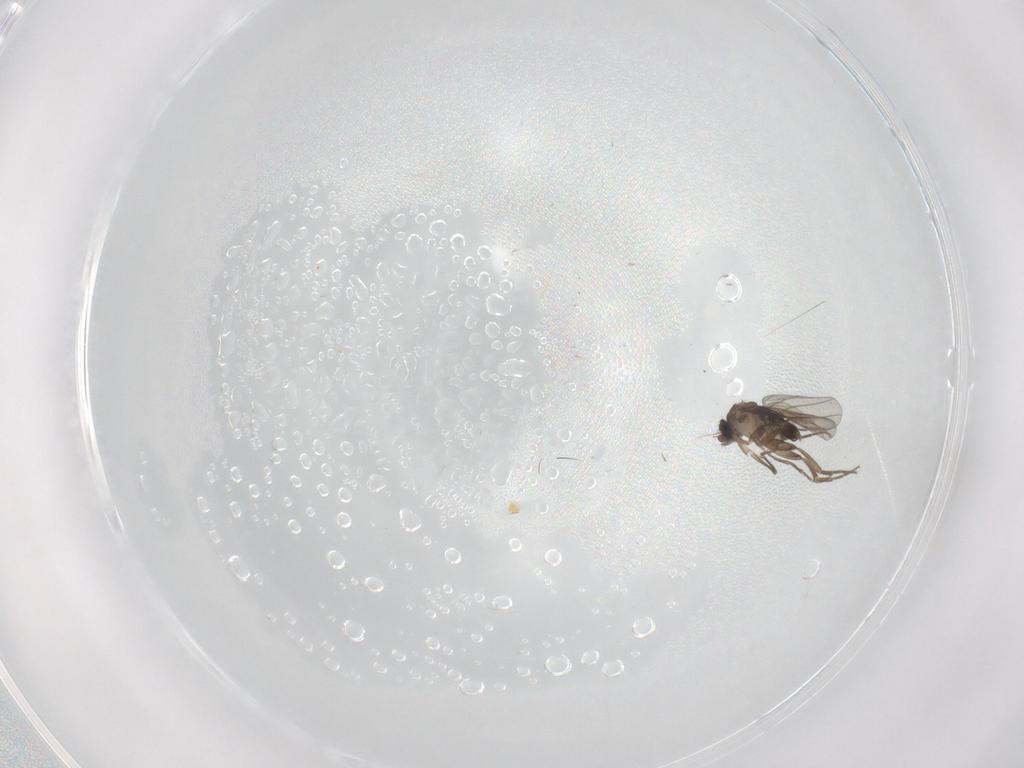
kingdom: Animalia
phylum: Arthropoda
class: Insecta
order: Diptera
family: Phoridae
